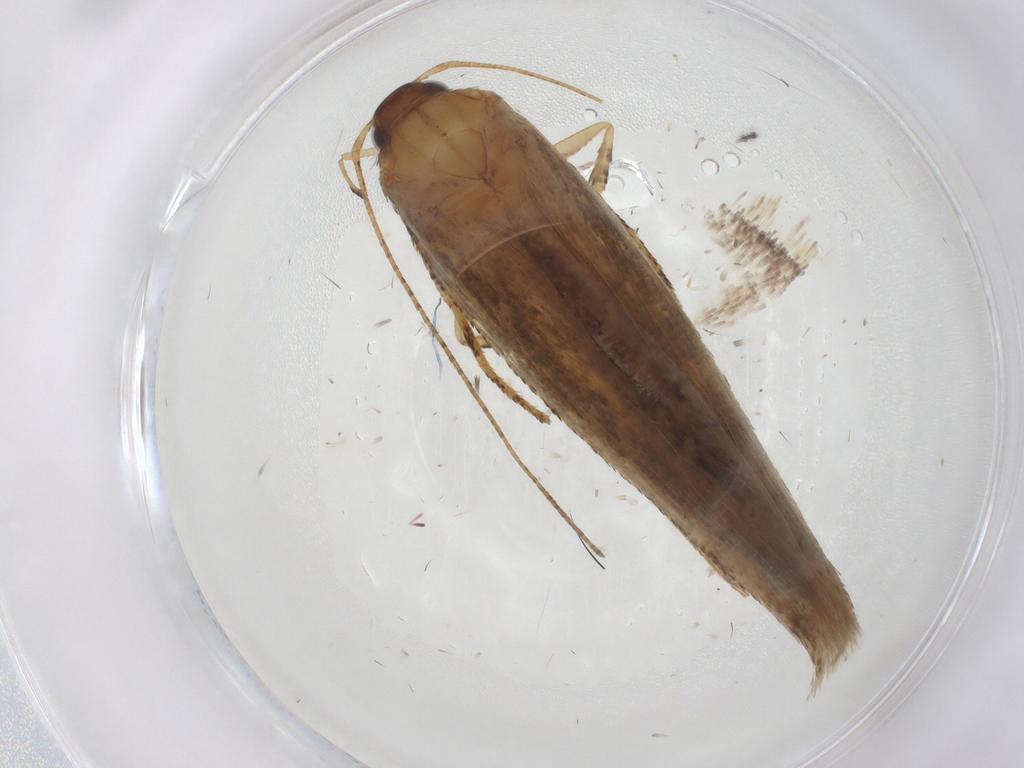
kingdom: Animalia
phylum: Arthropoda
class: Insecta
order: Lepidoptera
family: Gelechiidae
